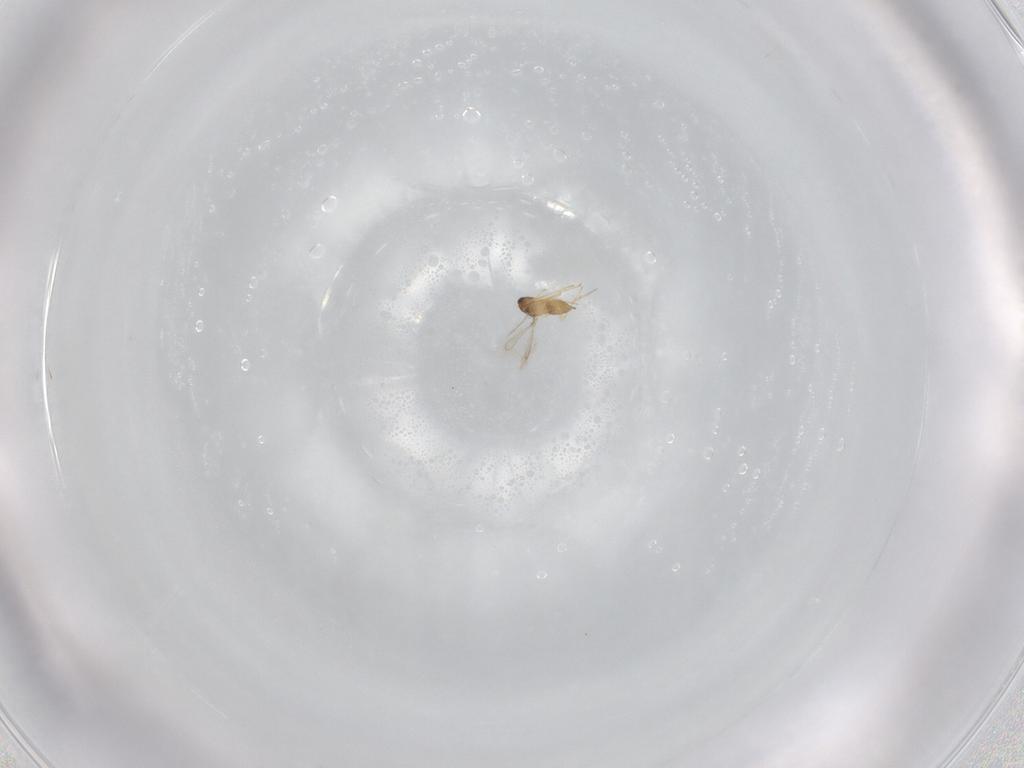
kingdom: Animalia
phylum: Arthropoda
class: Insecta
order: Hymenoptera
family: Mymaridae
